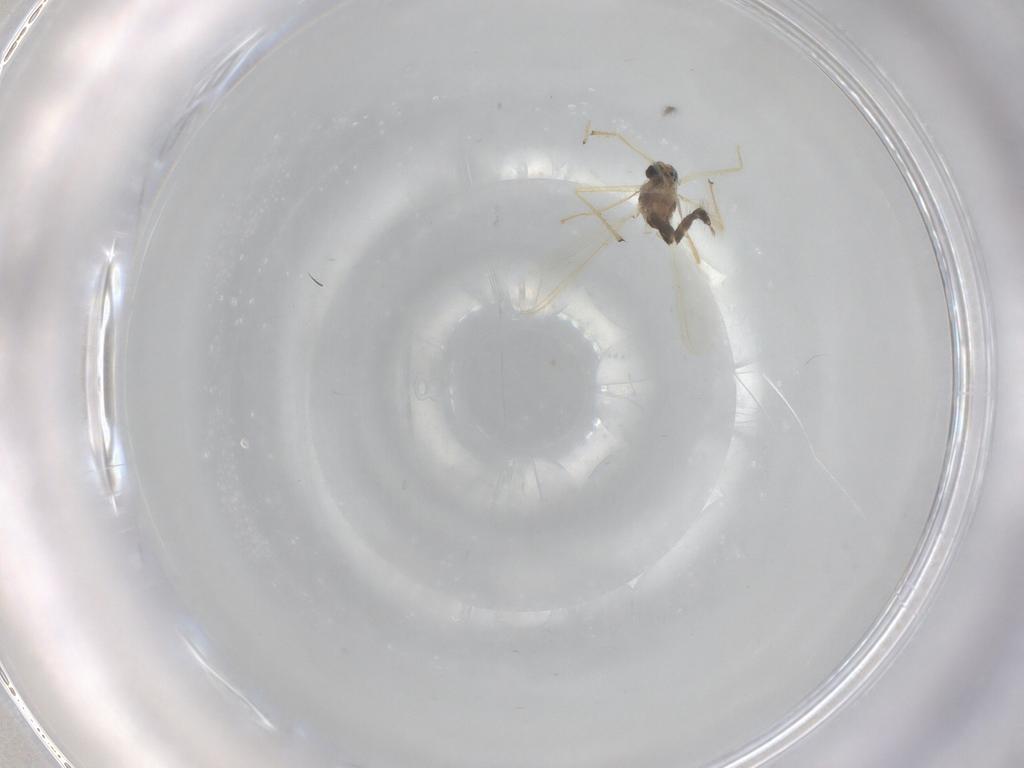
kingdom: Animalia
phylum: Arthropoda
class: Insecta
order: Diptera
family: Chironomidae
